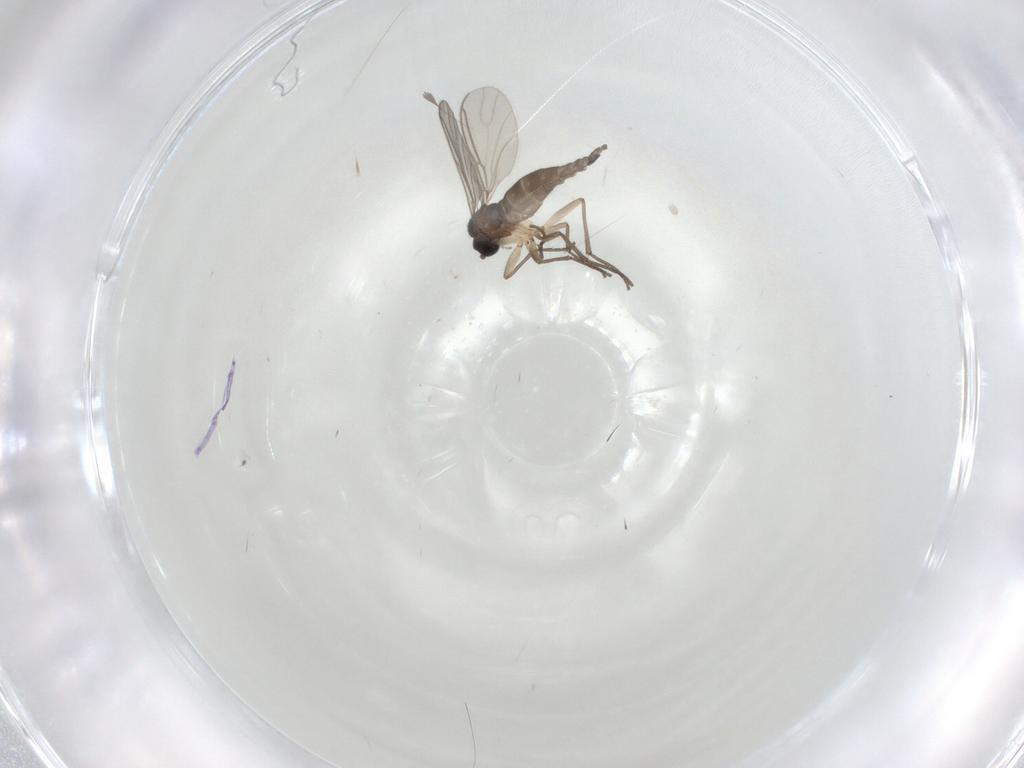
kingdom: Animalia
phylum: Arthropoda
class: Insecta
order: Diptera
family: Sciaridae
